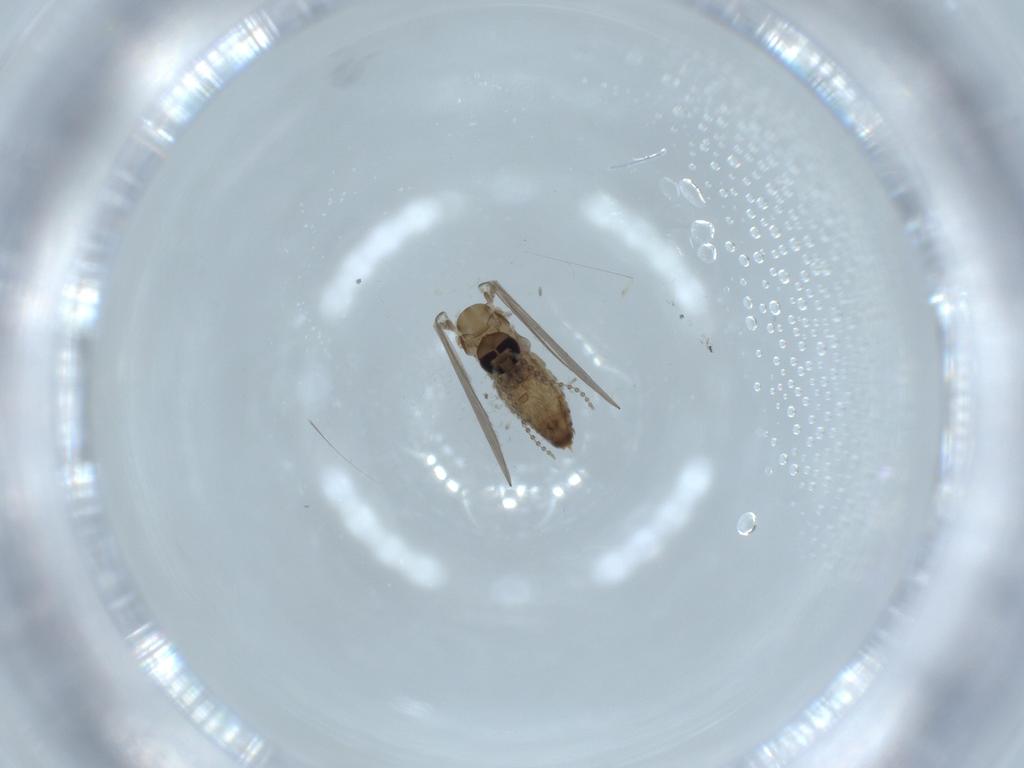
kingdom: Animalia
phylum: Arthropoda
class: Insecta
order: Diptera
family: Psychodidae
